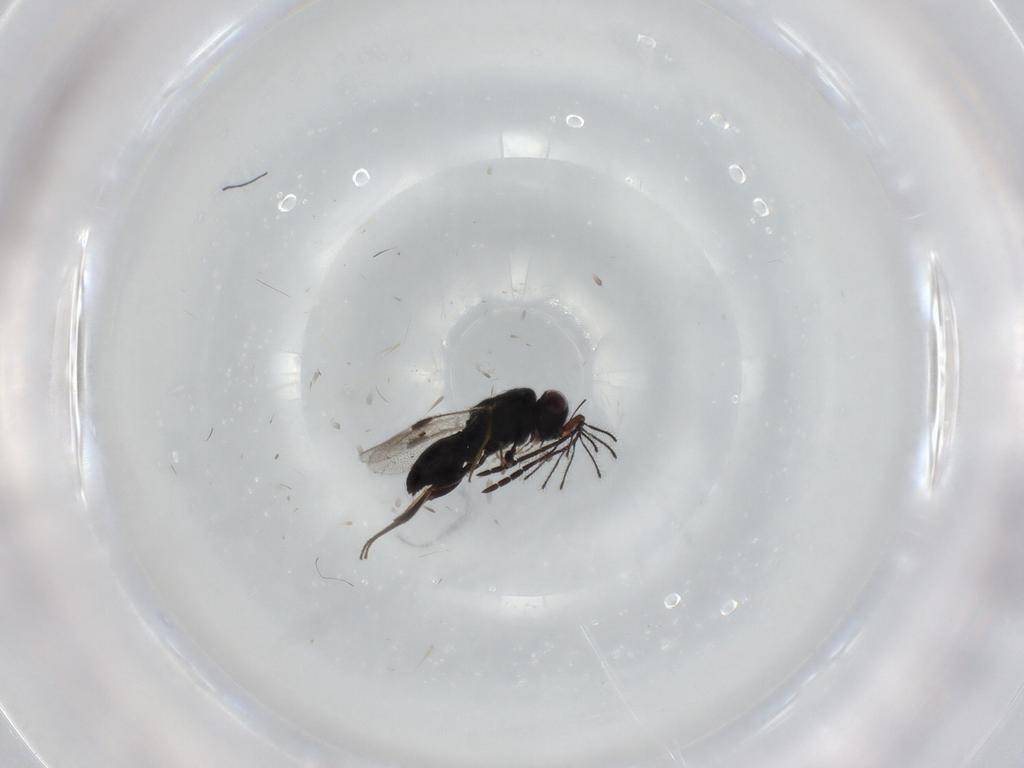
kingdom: Animalia
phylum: Arthropoda
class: Insecta
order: Hymenoptera
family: Megaspilidae
